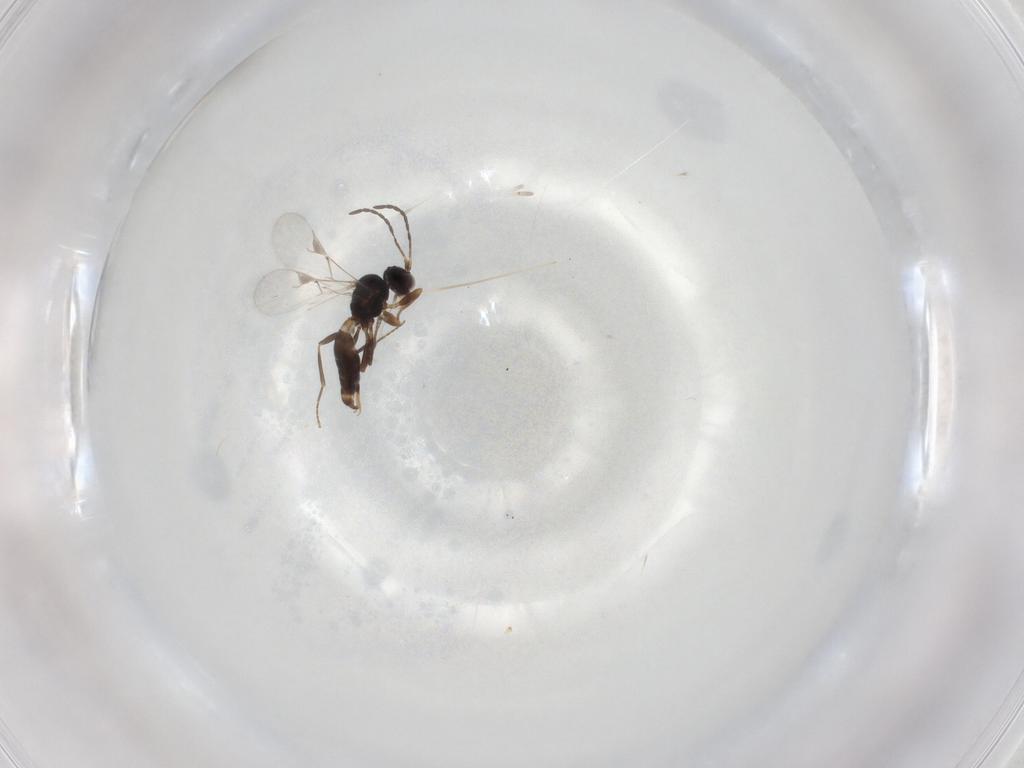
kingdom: Animalia
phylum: Arthropoda
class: Insecta
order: Hymenoptera
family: Braconidae
